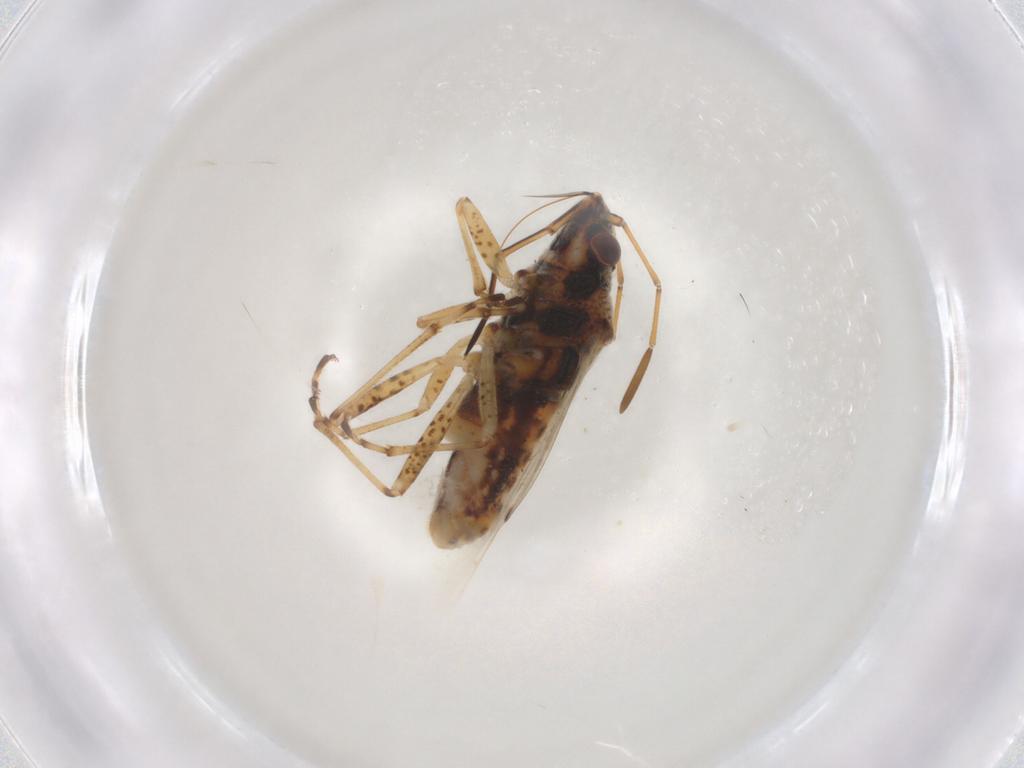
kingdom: Animalia
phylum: Arthropoda
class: Insecta
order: Hemiptera
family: Lygaeidae
